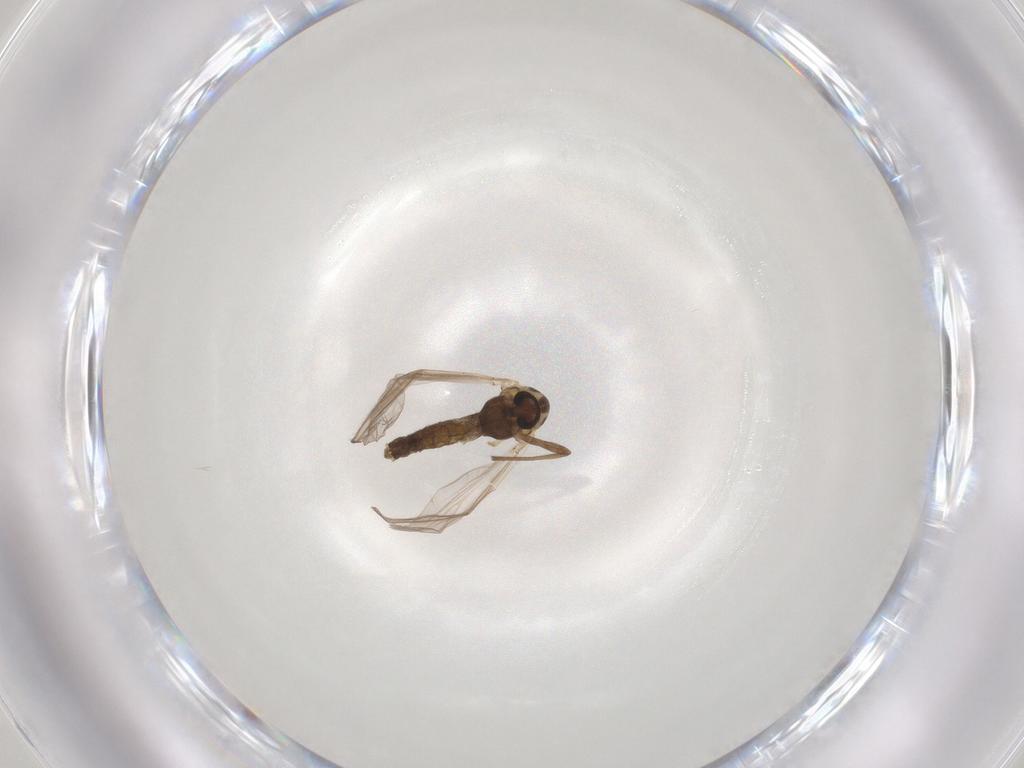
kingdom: Animalia
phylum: Arthropoda
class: Insecta
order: Diptera
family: Chironomidae
